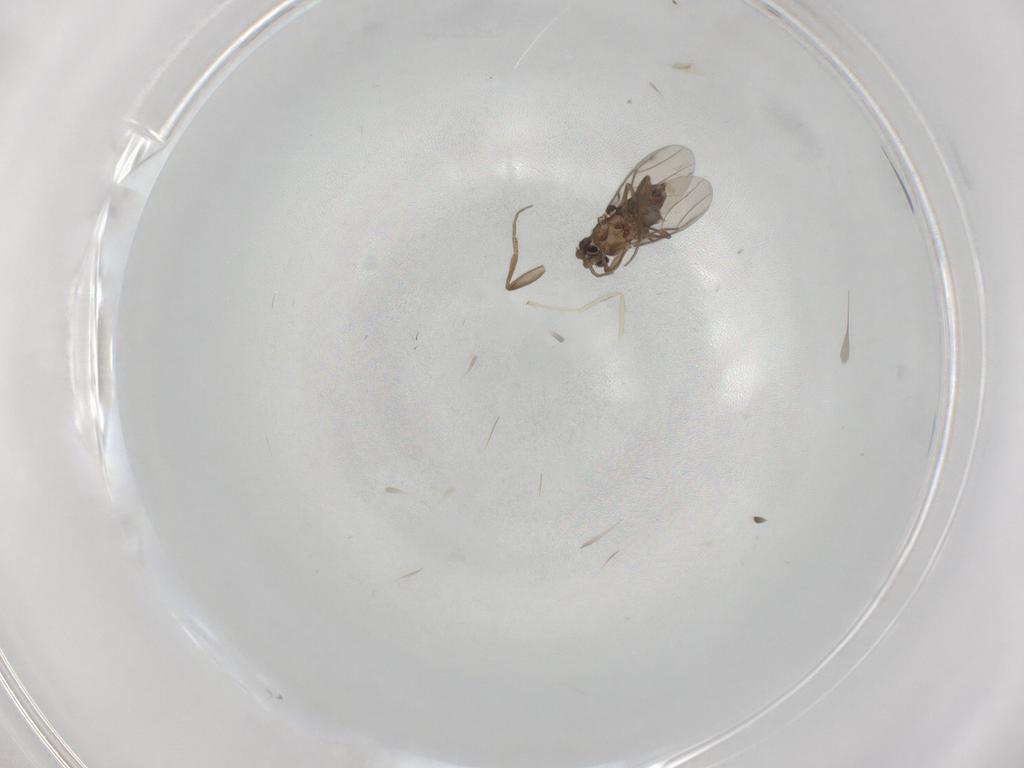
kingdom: Animalia
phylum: Arthropoda
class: Insecta
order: Diptera
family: Phoridae
